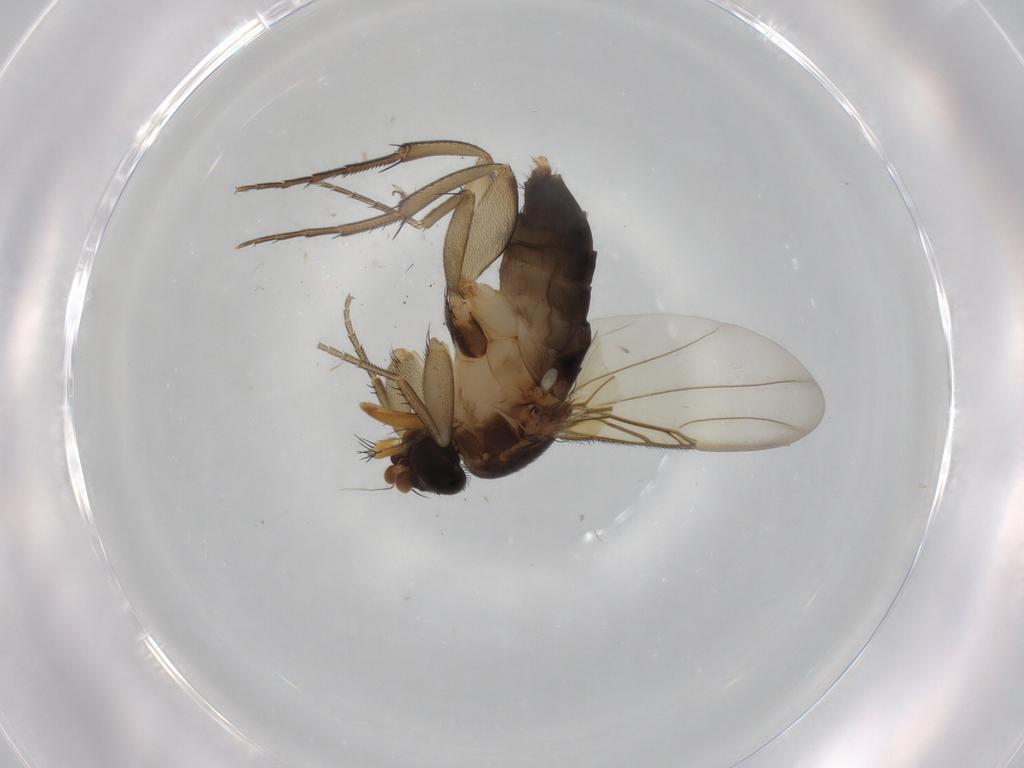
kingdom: Animalia
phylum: Arthropoda
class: Insecta
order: Diptera
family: Phoridae
